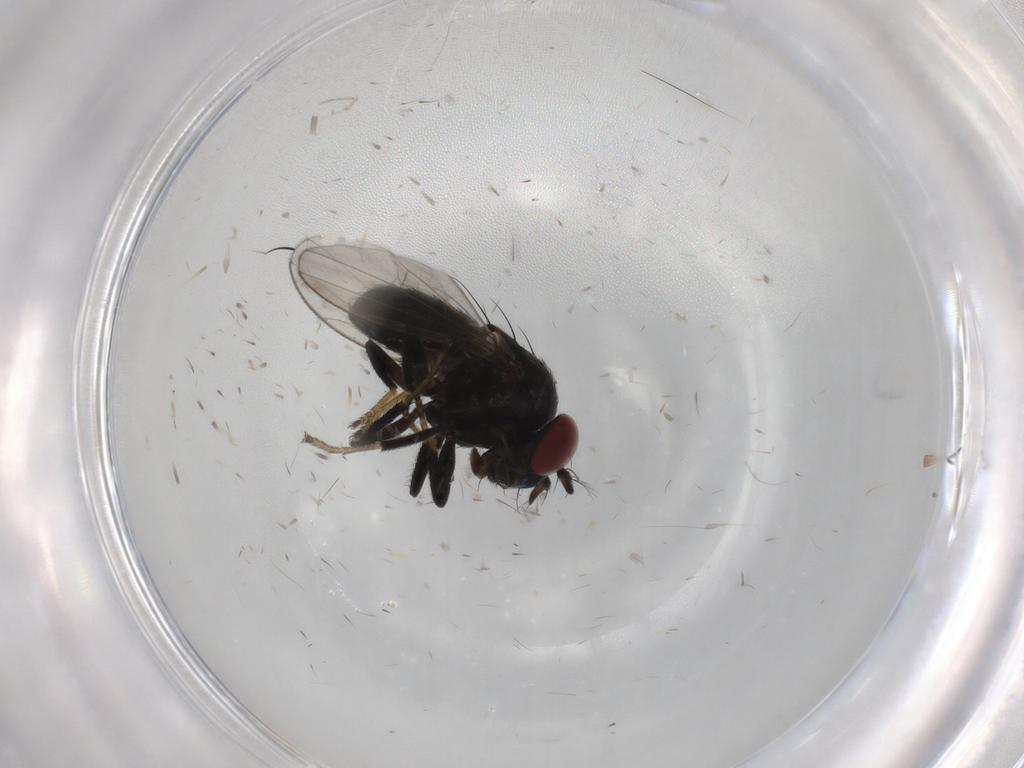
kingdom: Animalia
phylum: Arthropoda
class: Insecta
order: Diptera
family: Muscidae
